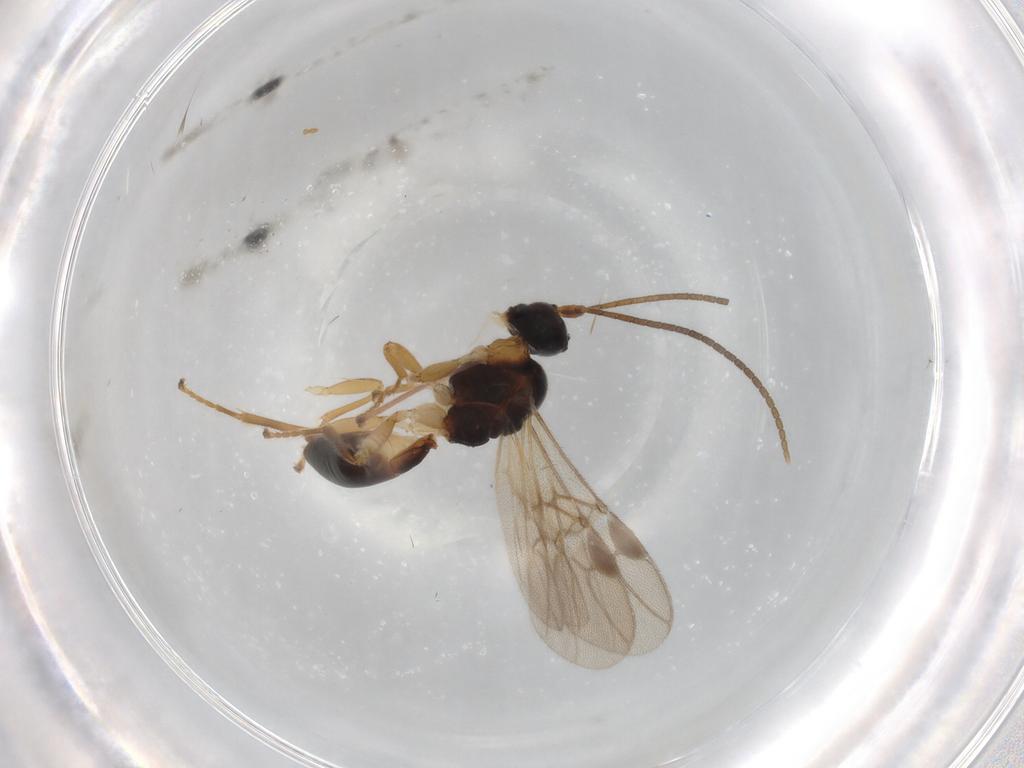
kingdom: Animalia
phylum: Arthropoda
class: Insecta
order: Hymenoptera
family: Braconidae
